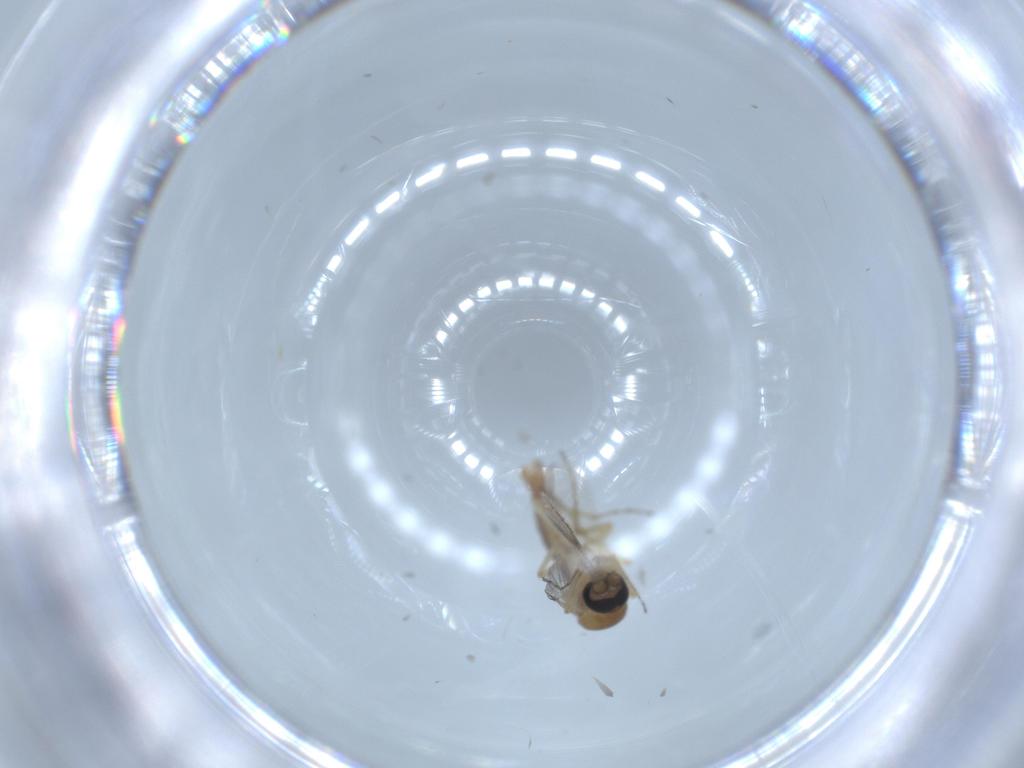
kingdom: Animalia
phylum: Arthropoda
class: Insecta
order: Diptera
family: Ceratopogonidae
